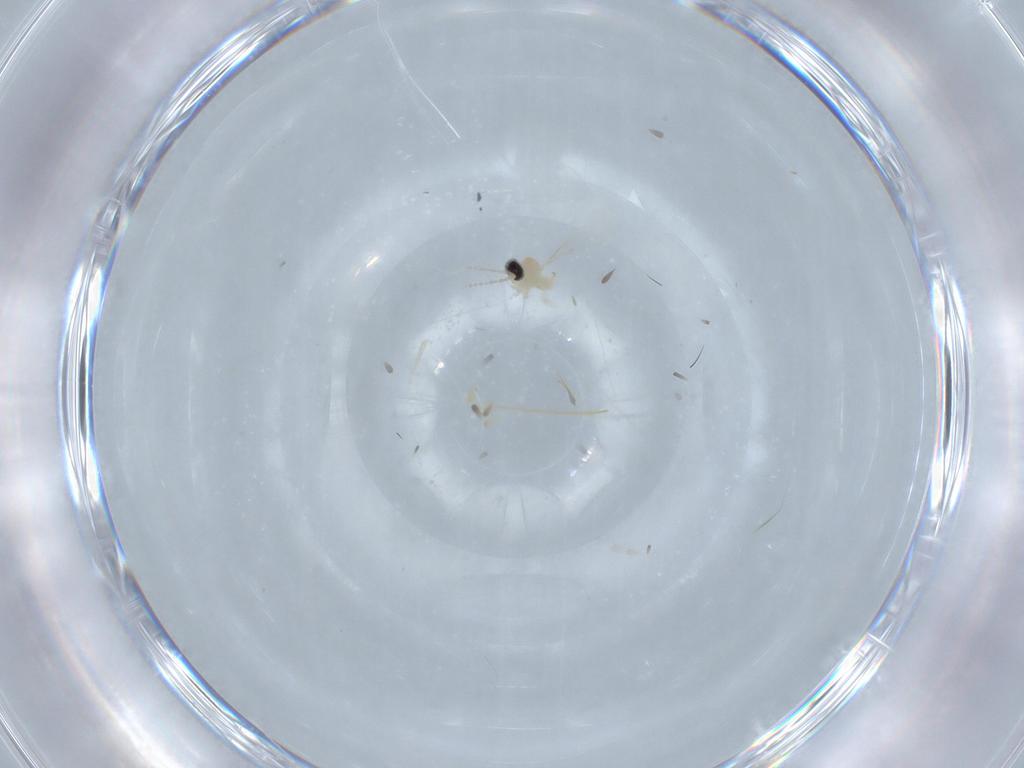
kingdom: Animalia
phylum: Arthropoda
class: Insecta
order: Diptera
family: Cecidomyiidae
